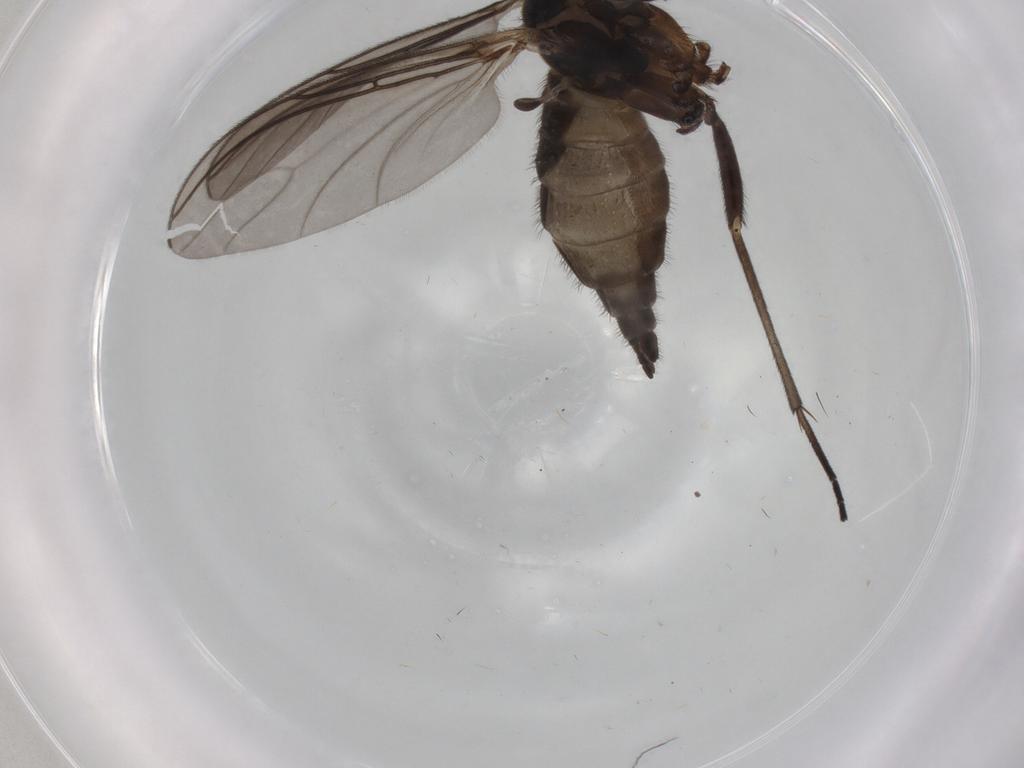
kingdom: Animalia
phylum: Arthropoda
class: Insecta
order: Diptera
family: Sciaridae
